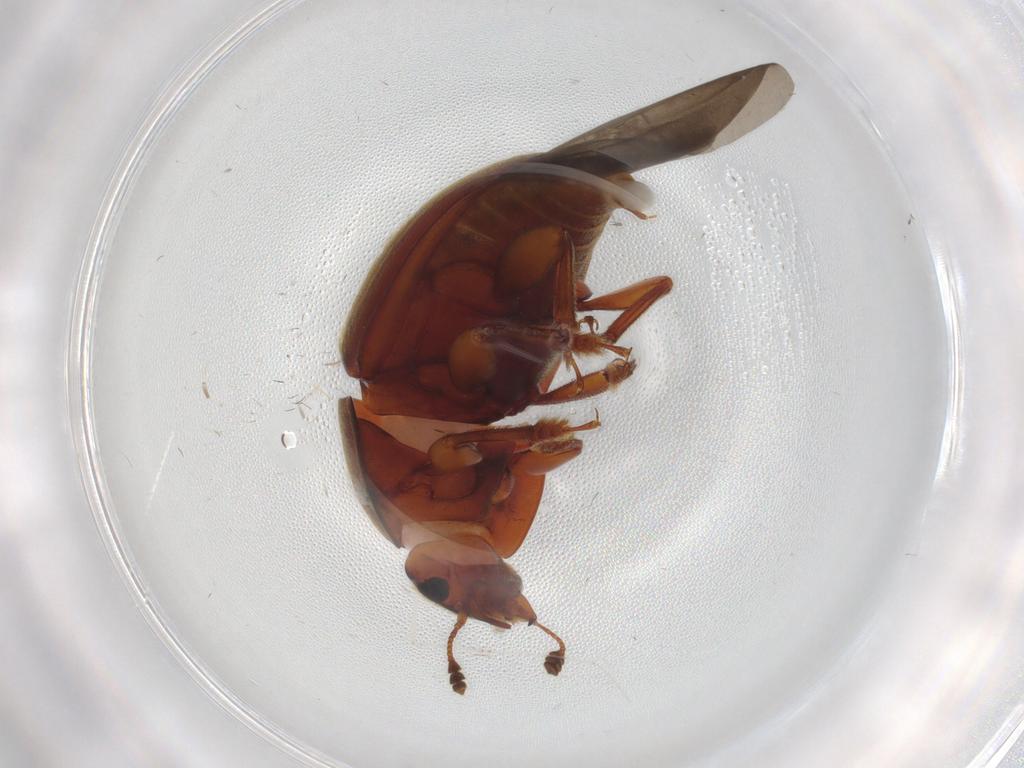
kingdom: Animalia
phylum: Arthropoda
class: Insecta
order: Coleoptera
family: Nitidulidae
